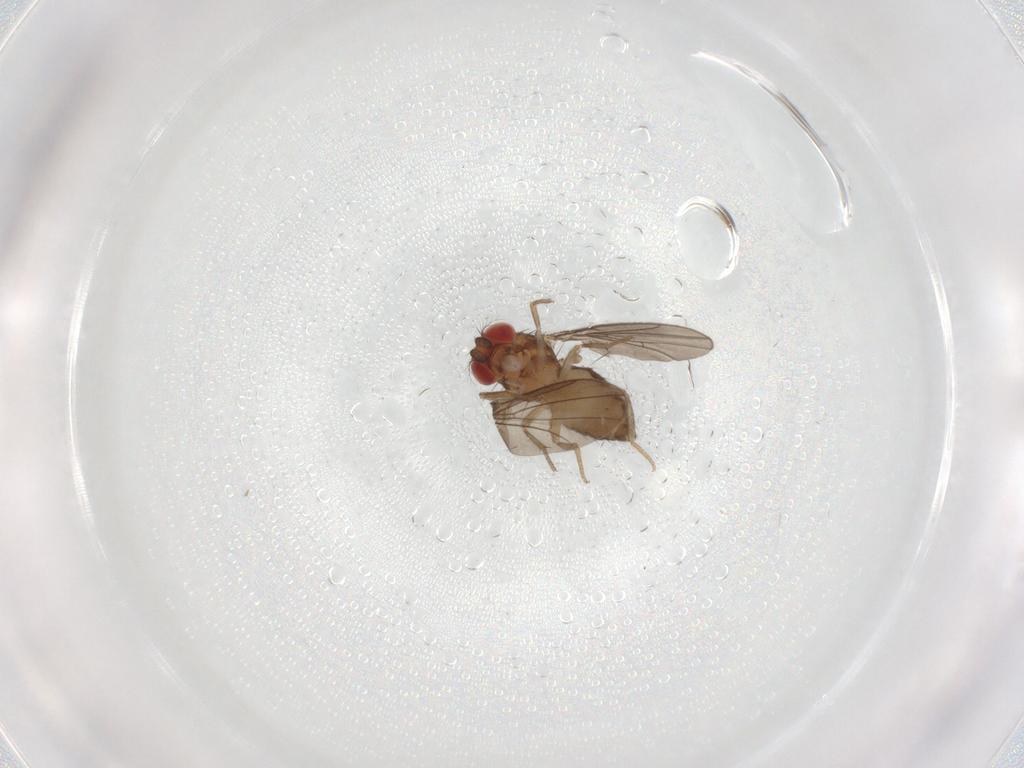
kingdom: Animalia
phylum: Arthropoda
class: Insecta
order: Diptera
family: Drosophilidae
